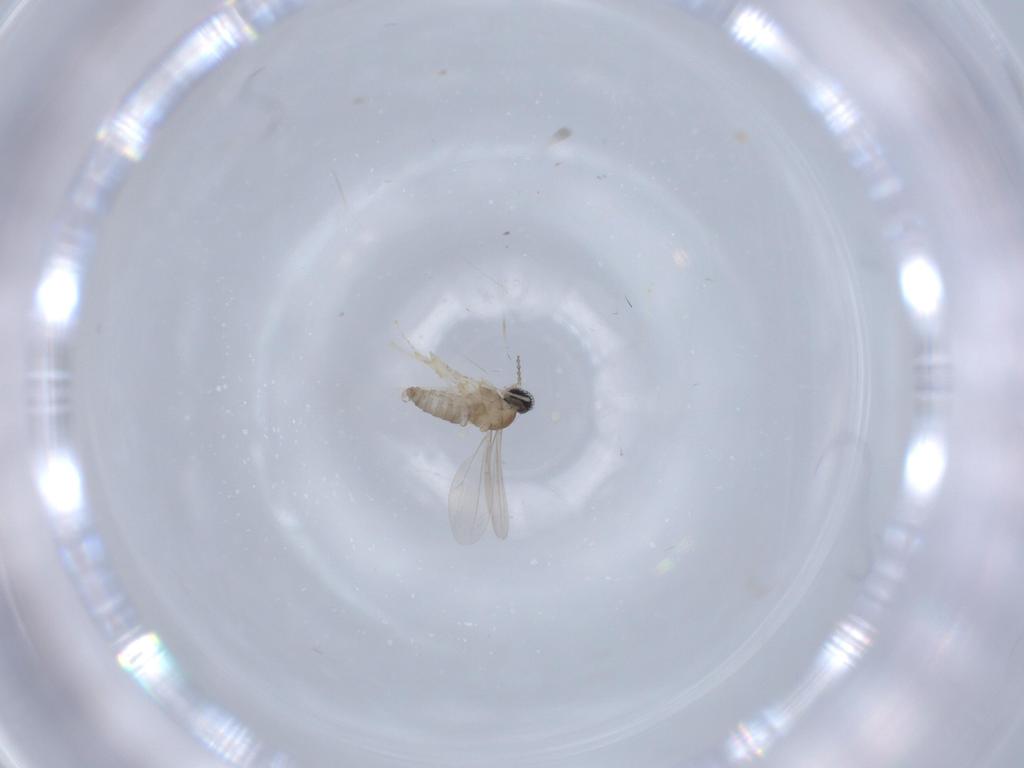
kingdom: Animalia
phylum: Arthropoda
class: Insecta
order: Diptera
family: Cecidomyiidae
